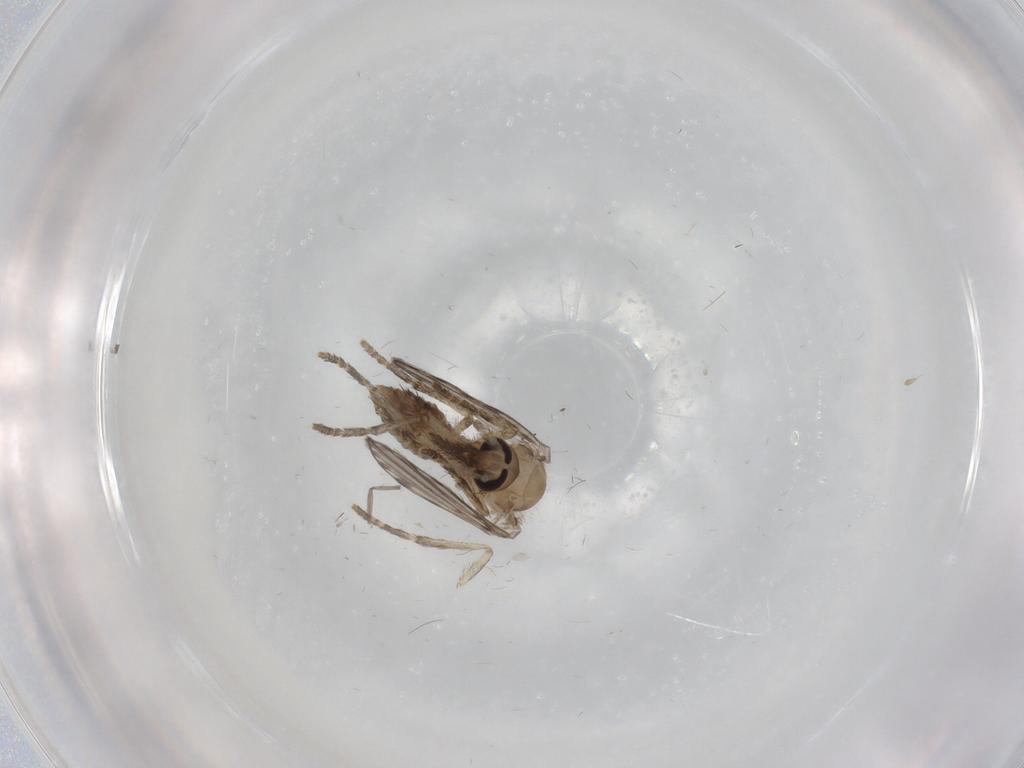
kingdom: Animalia
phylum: Arthropoda
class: Insecta
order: Diptera
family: Psychodidae
